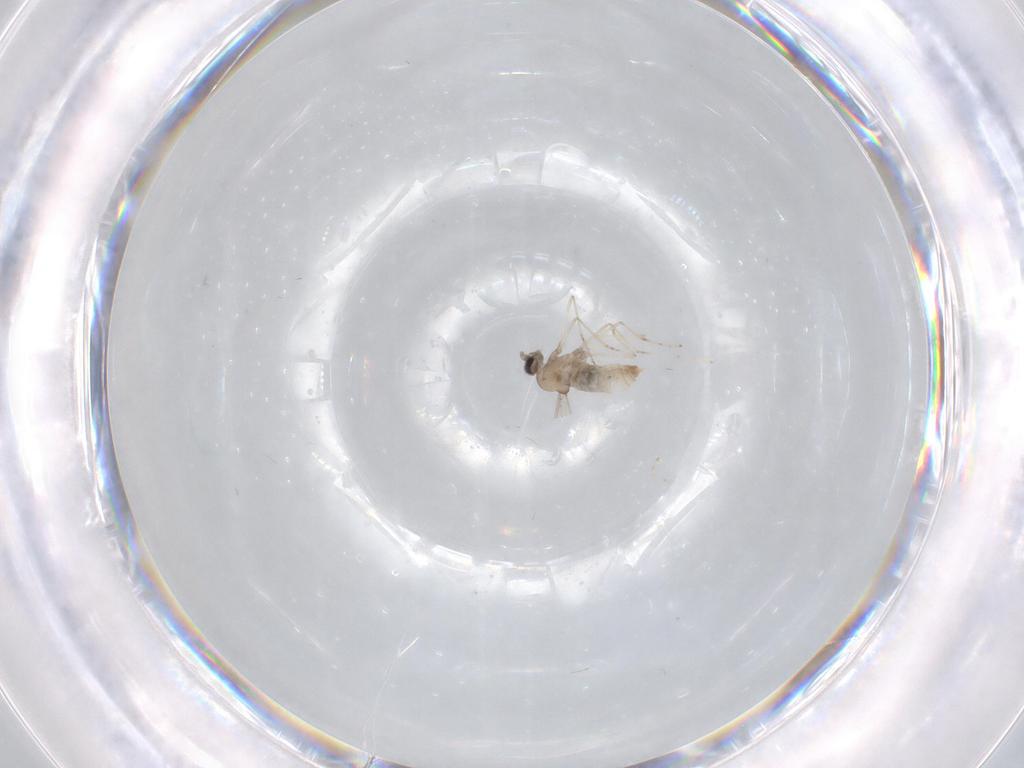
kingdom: Animalia
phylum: Arthropoda
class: Insecta
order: Diptera
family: Cecidomyiidae
